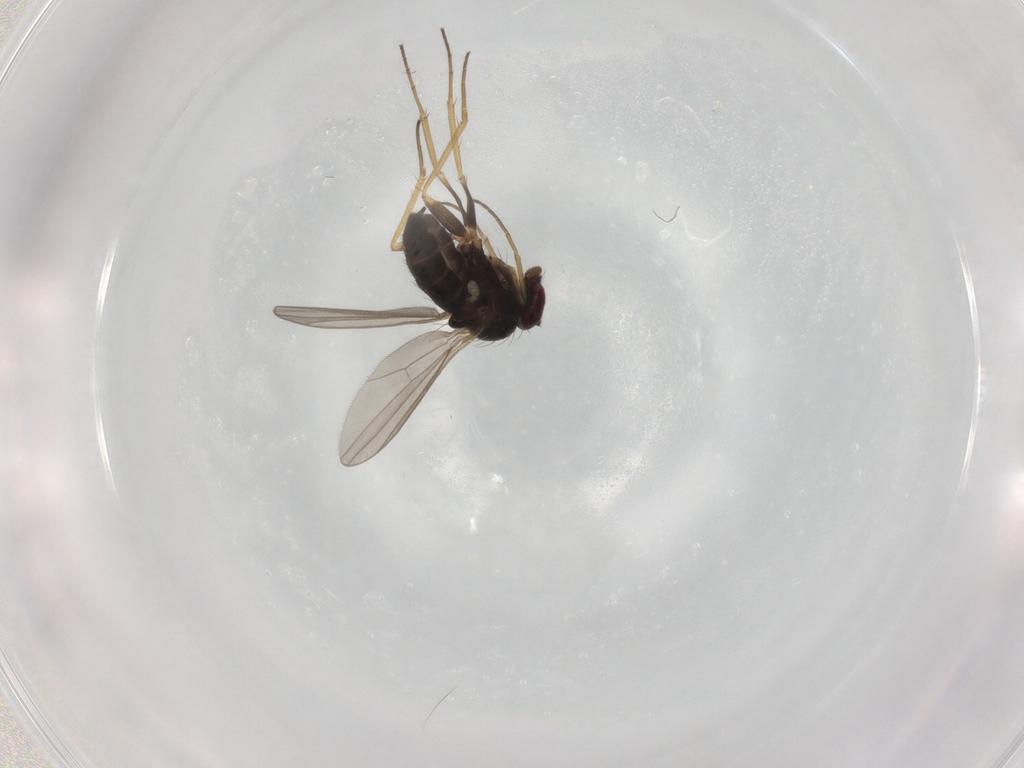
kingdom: Animalia
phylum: Arthropoda
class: Insecta
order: Diptera
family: Dolichopodidae
